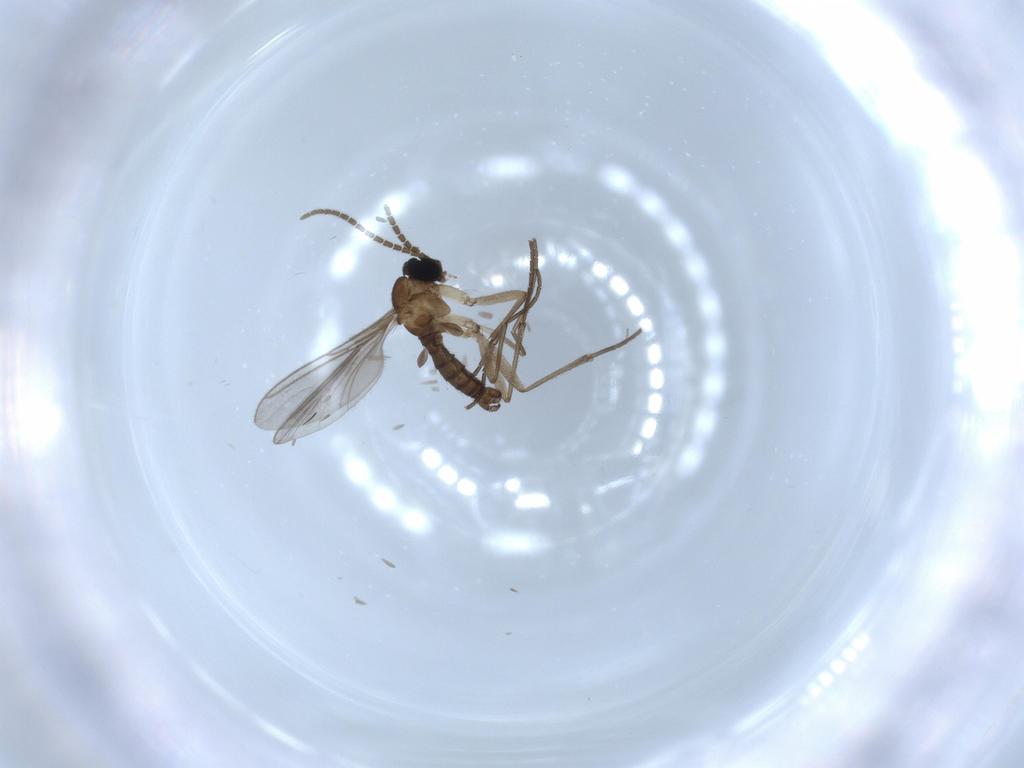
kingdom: Animalia
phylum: Arthropoda
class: Insecta
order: Diptera
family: Sciaridae
